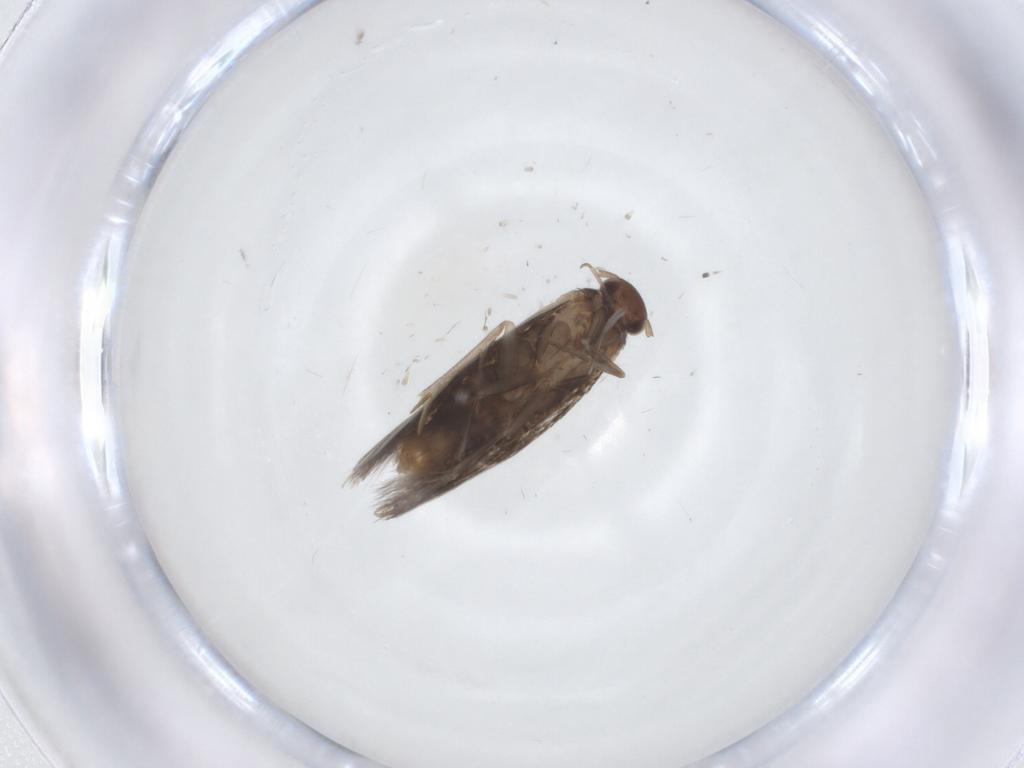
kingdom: Animalia
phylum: Arthropoda
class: Insecta
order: Lepidoptera
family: Elachistidae
